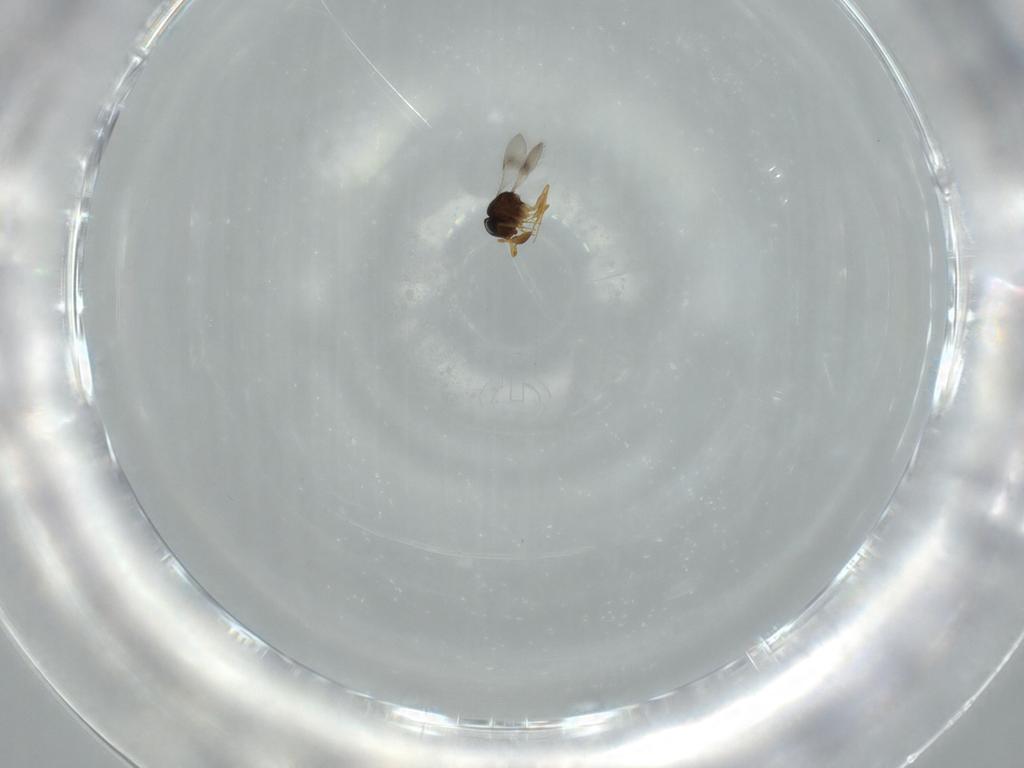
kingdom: Animalia
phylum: Arthropoda
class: Insecta
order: Hymenoptera
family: Scelionidae
